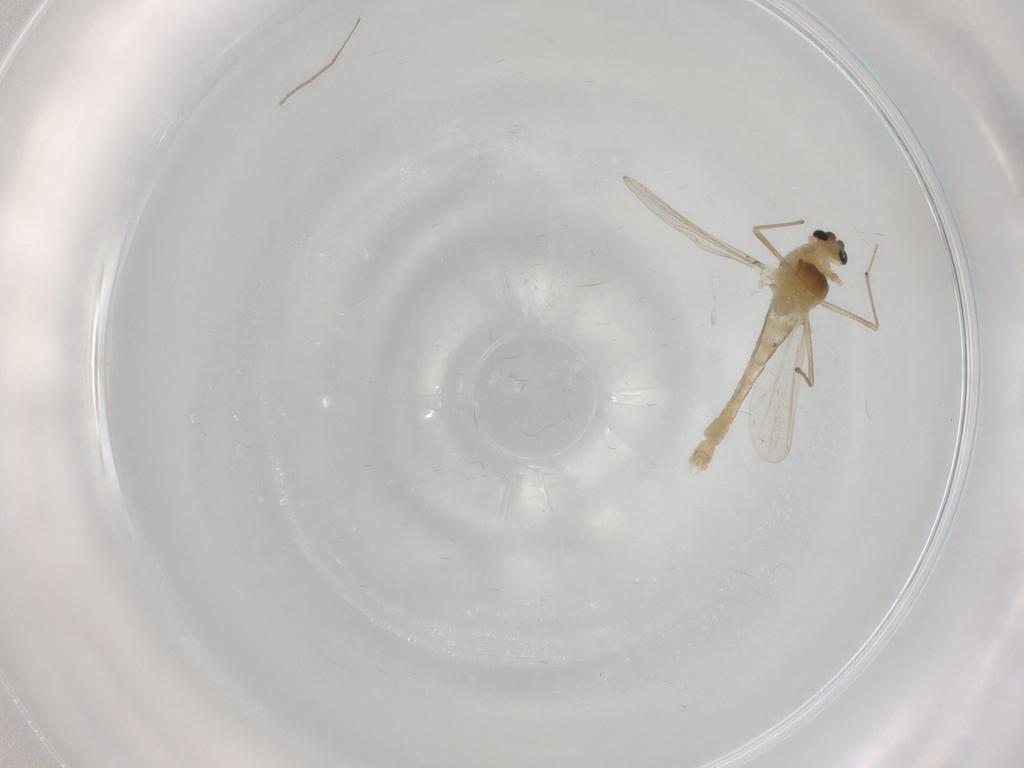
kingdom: Animalia
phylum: Arthropoda
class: Insecta
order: Diptera
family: Chironomidae
